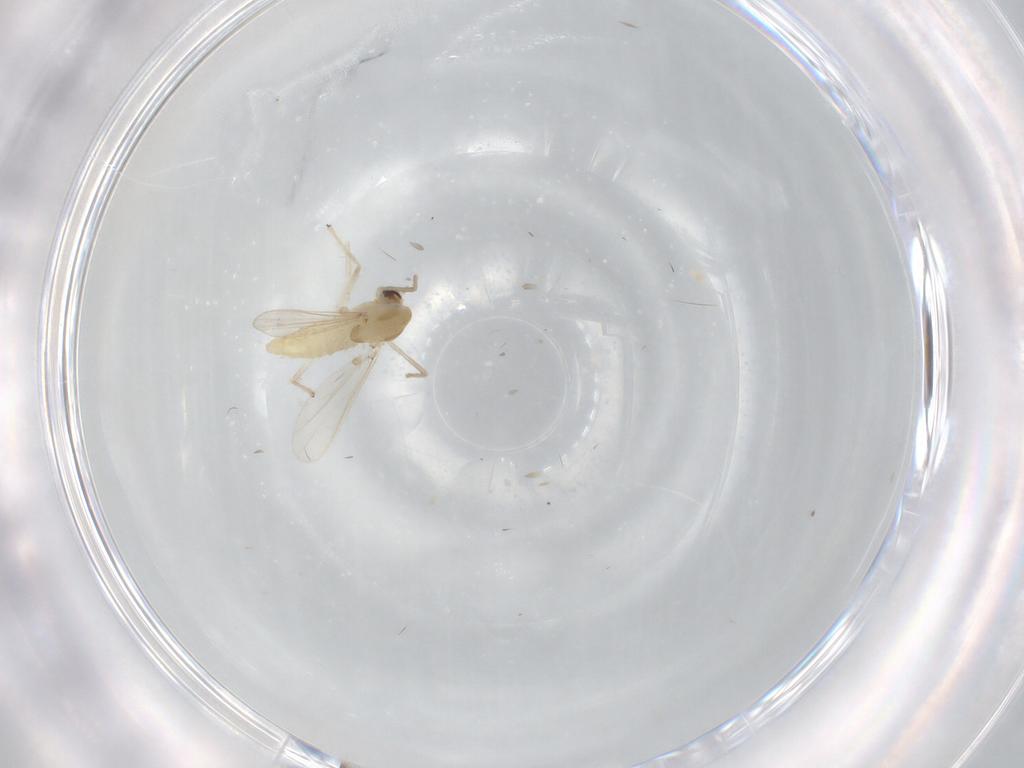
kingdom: Animalia
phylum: Arthropoda
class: Insecta
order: Diptera
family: Chironomidae
